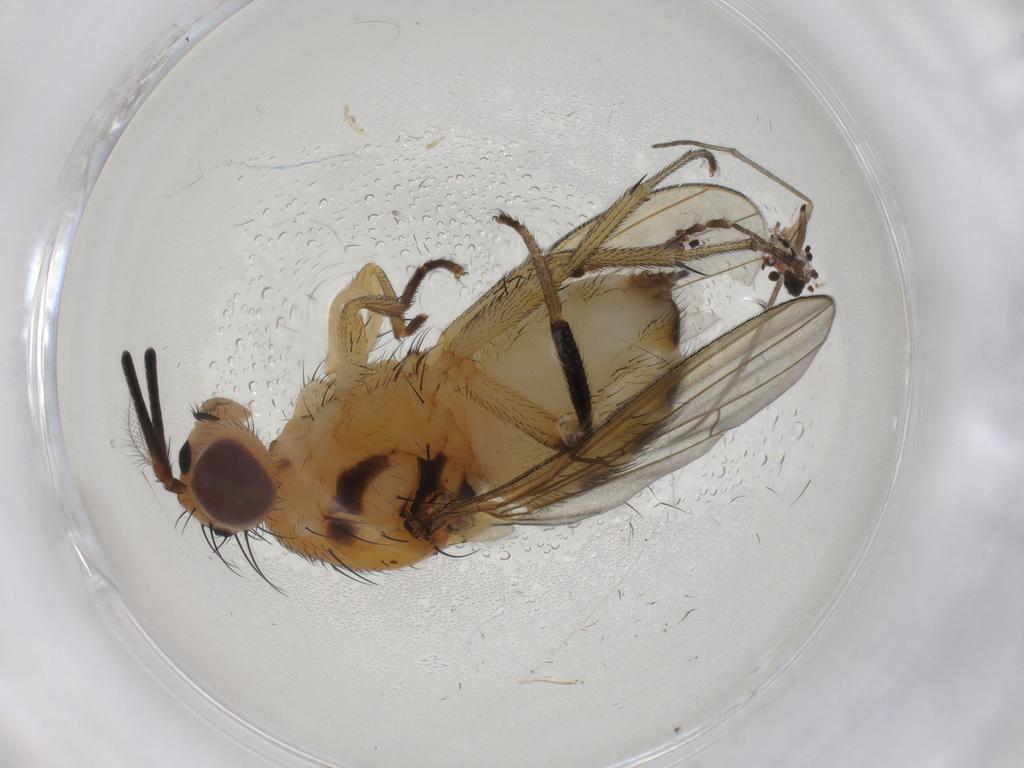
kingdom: Animalia
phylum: Arthropoda
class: Insecta
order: Diptera
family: Lauxaniidae
